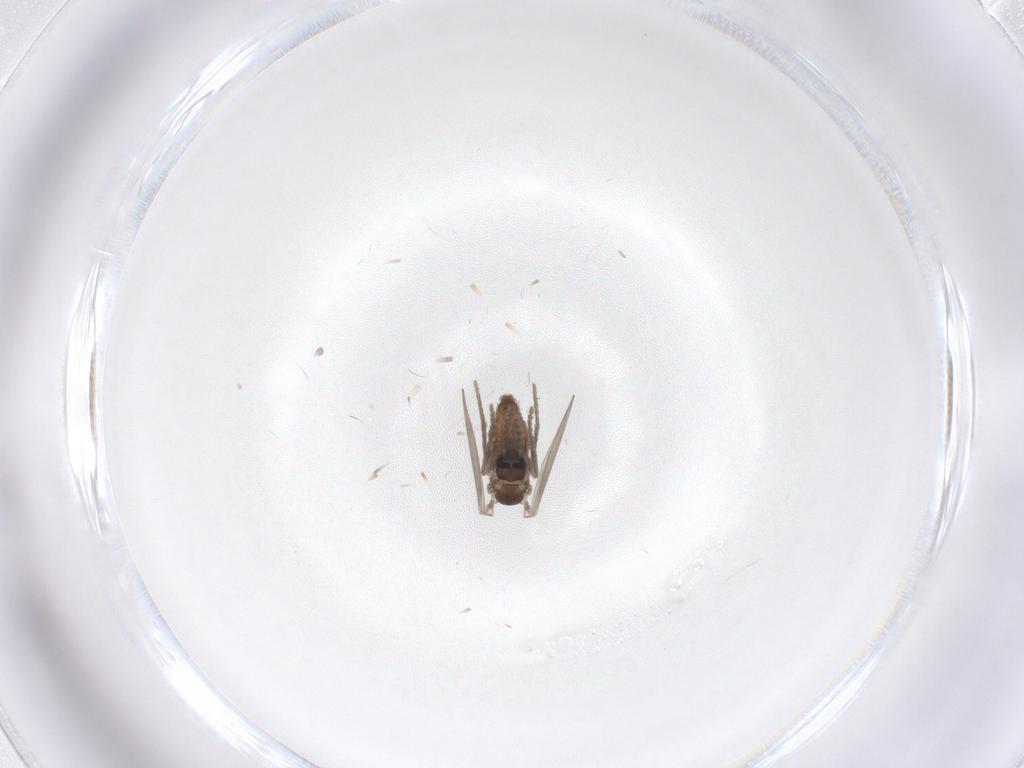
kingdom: Animalia
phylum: Arthropoda
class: Insecta
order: Diptera
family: Psychodidae
